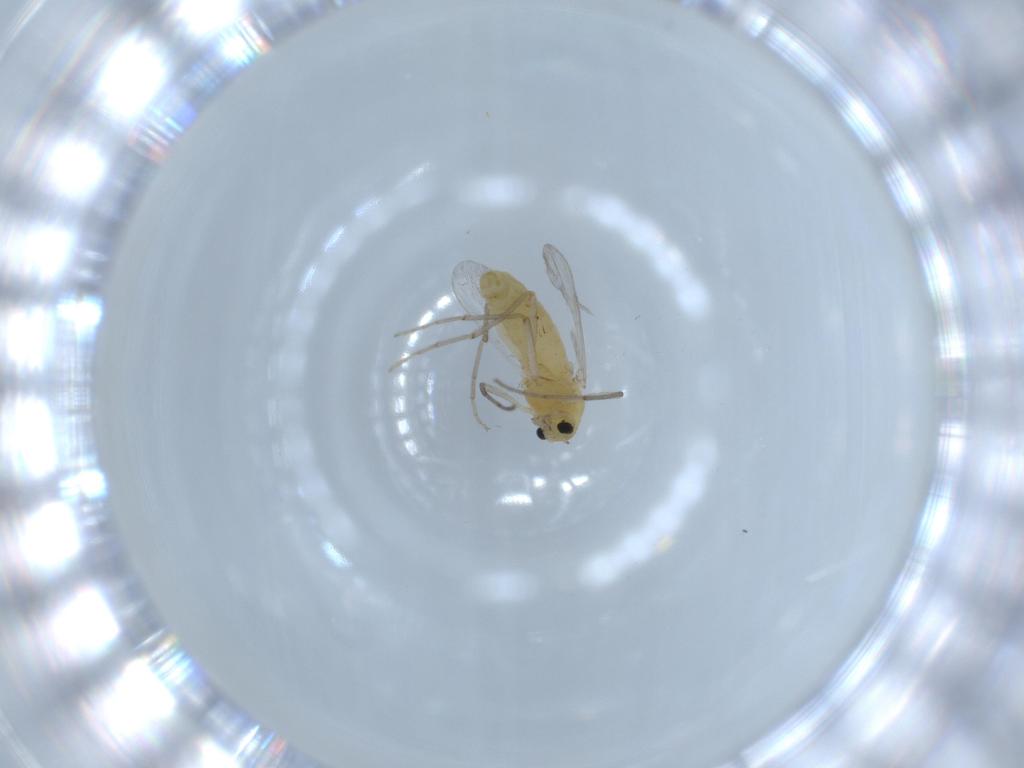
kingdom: Animalia
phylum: Arthropoda
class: Insecta
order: Diptera
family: Chironomidae
